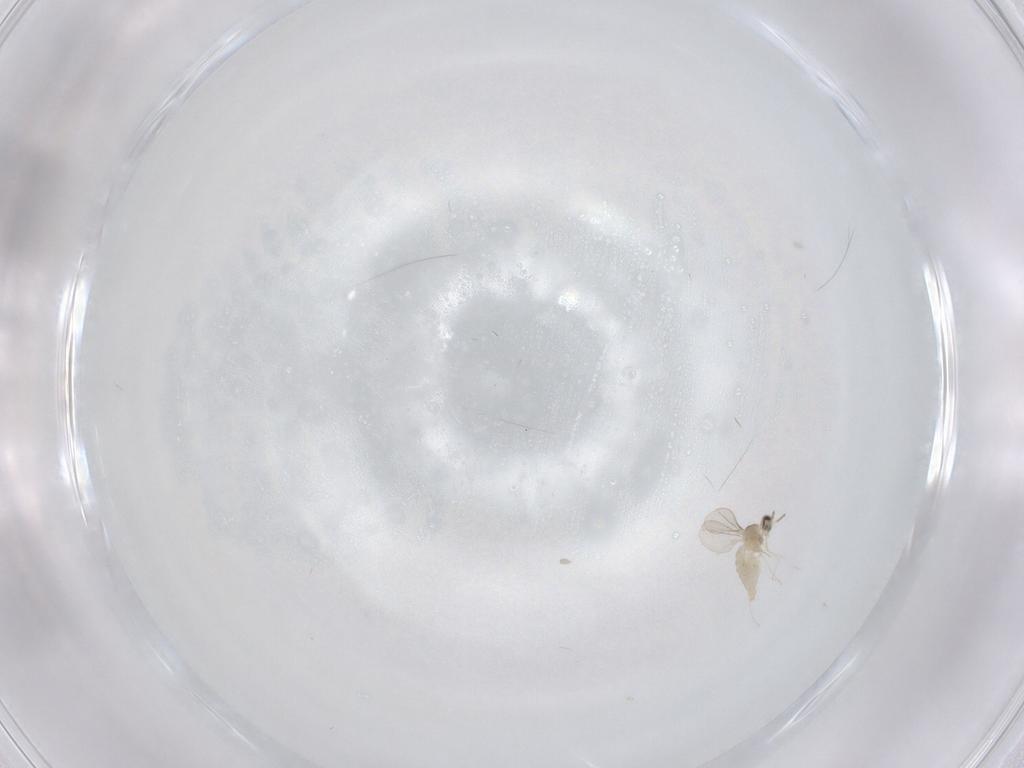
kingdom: Animalia
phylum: Arthropoda
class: Insecta
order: Diptera
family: Cecidomyiidae
